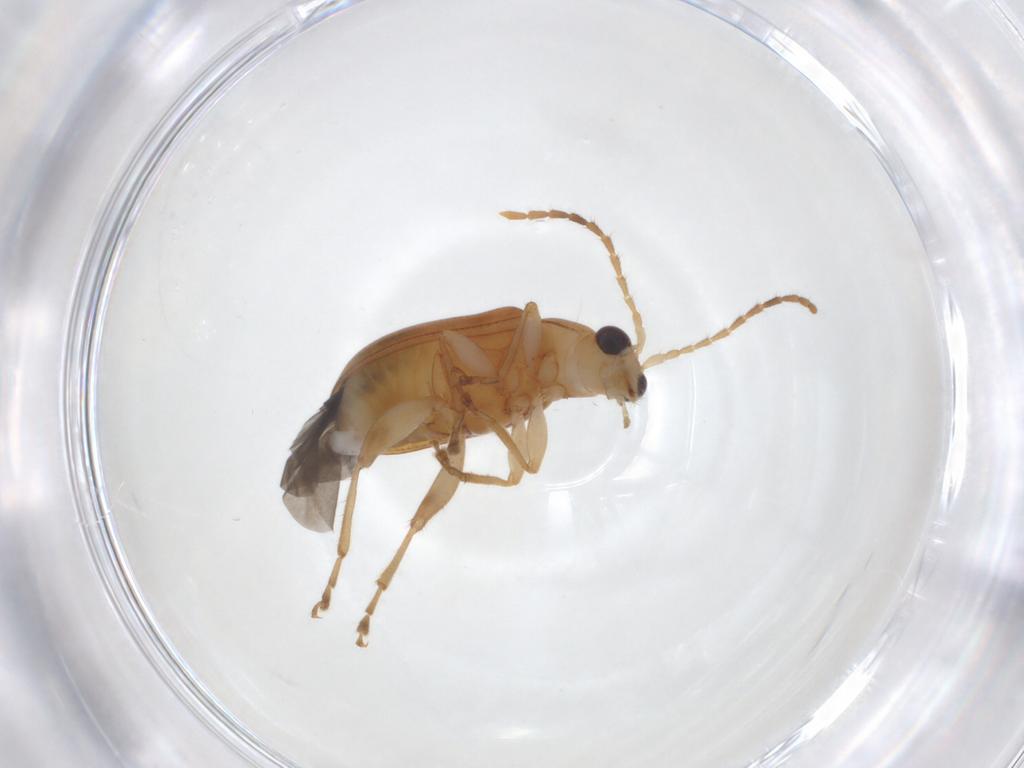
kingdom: Animalia
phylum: Arthropoda
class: Insecta
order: Coleoptera
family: Chrysomelidae
